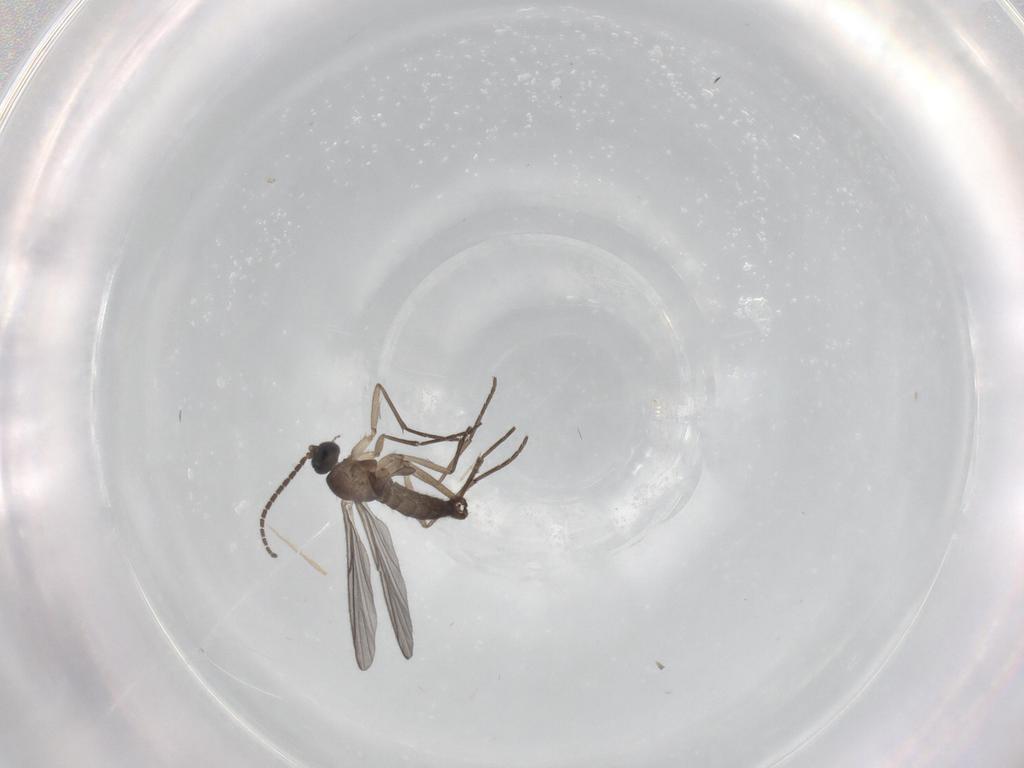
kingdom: Animalia
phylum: Arthropoda
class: Insecta
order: Diptera
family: Sciaridae
